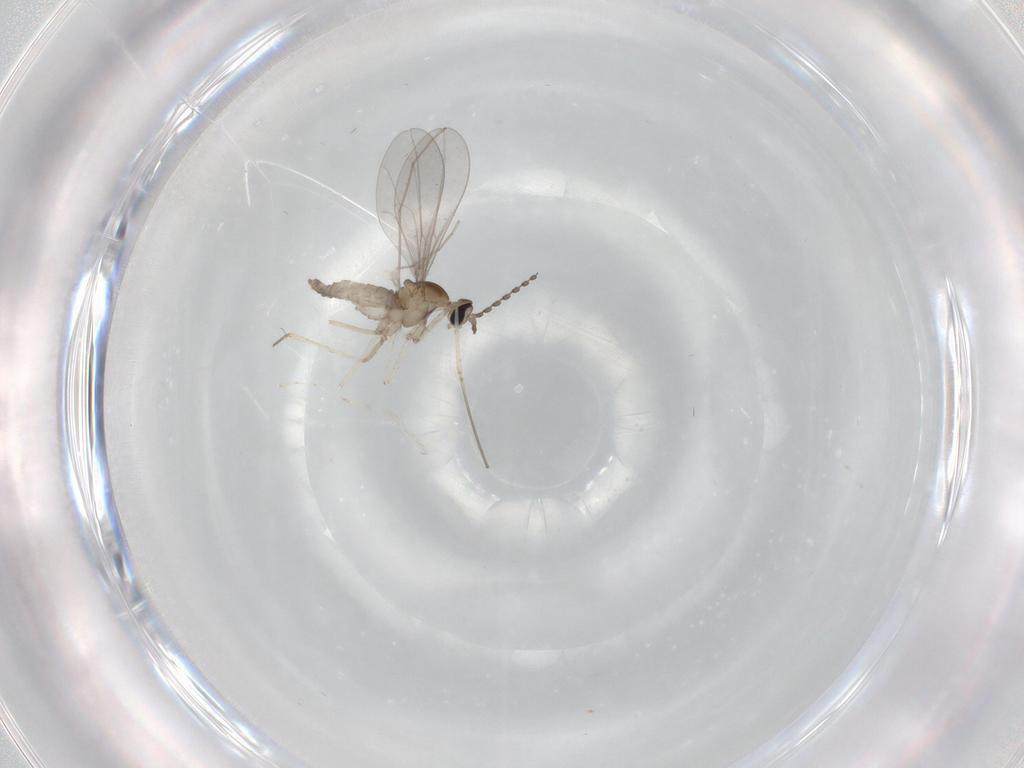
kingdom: Animalia
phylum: Arthropoda
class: Insecta
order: Diptera
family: Cecidomyiidae
